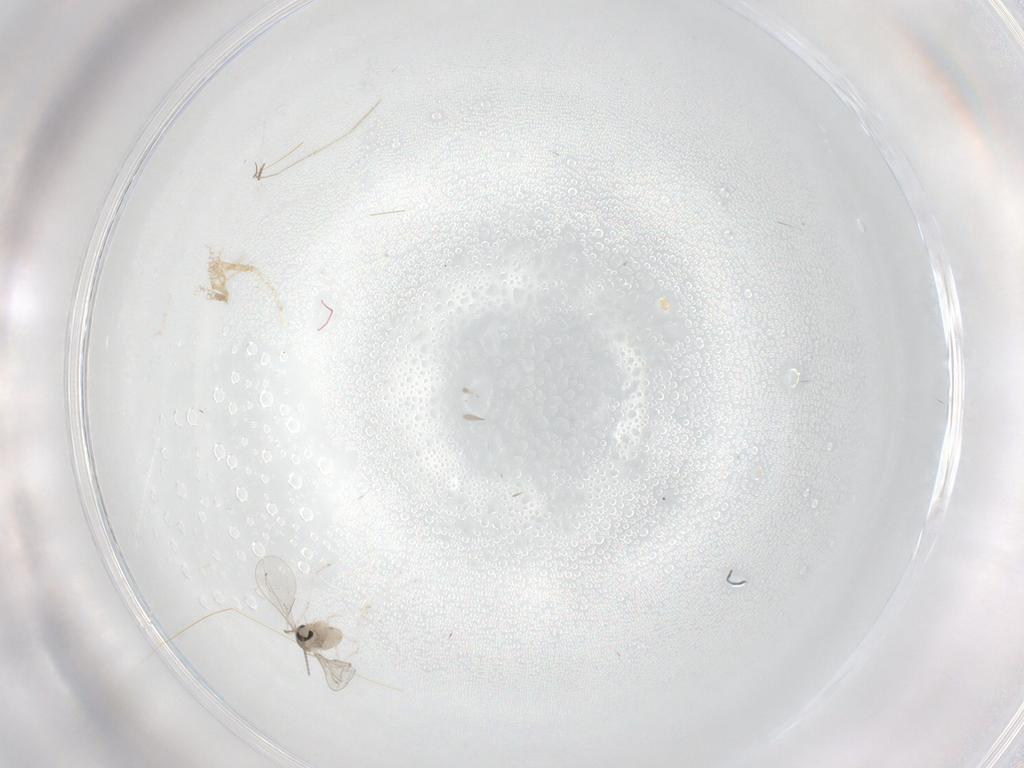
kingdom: Animalia
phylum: Arthropoda
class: Insecta
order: Diptera
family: Cecidomyiidae
